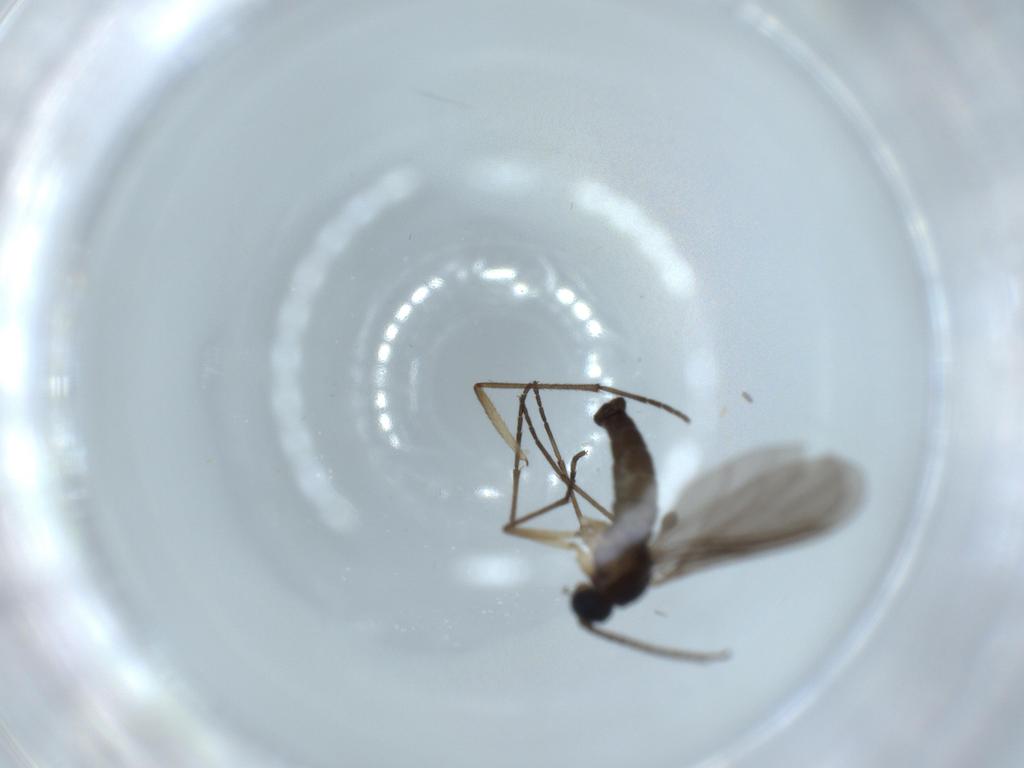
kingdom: Animalia
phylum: Arthropoda
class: Insecta
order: Diptera
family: Sciaridae
